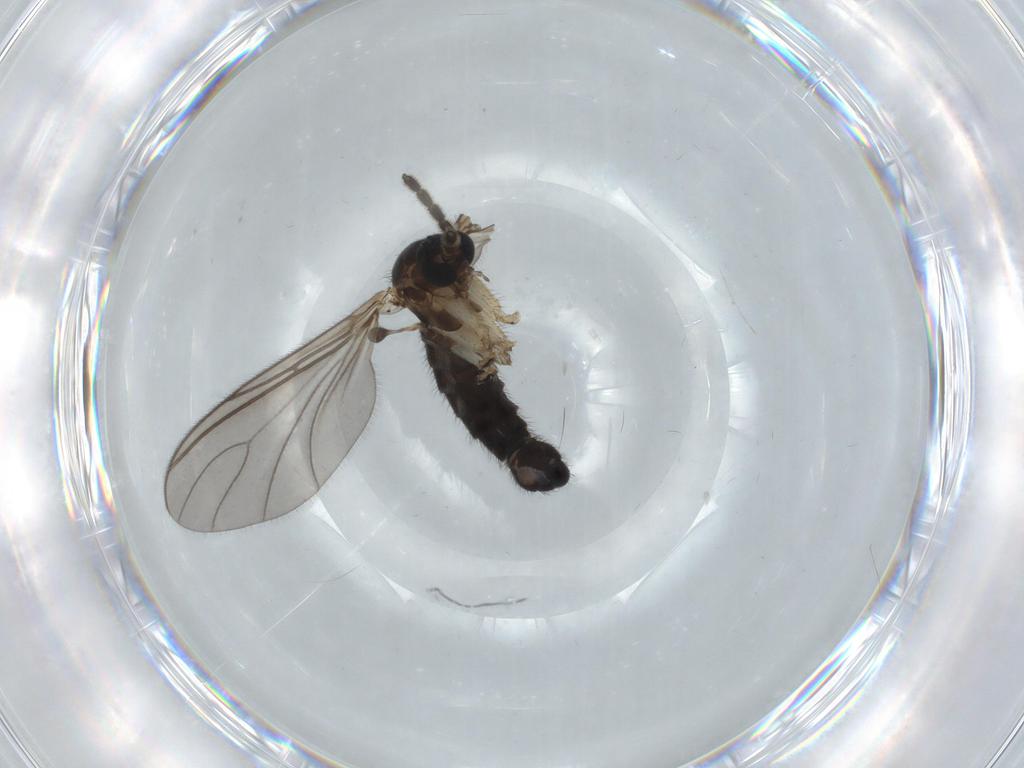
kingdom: Animalia
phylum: Arthropoda
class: Insecta
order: Diptera
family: Sciaridae
